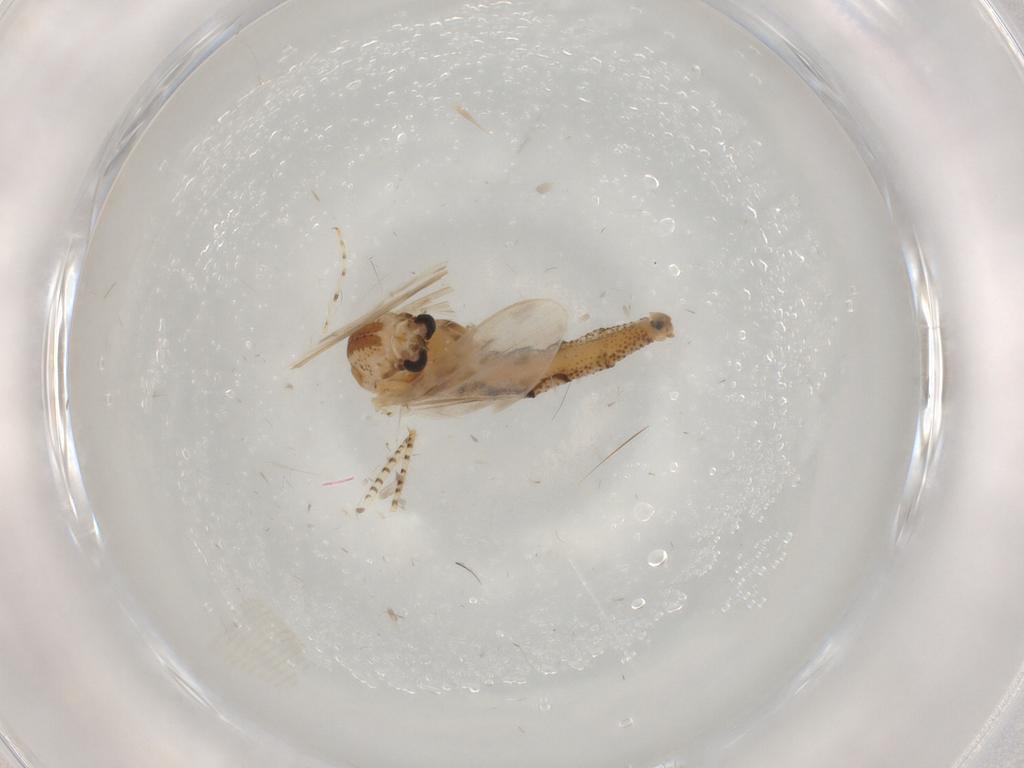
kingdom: Animalia
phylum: Arthropoda
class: Insecta
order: Diptera
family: Chaoboridae
